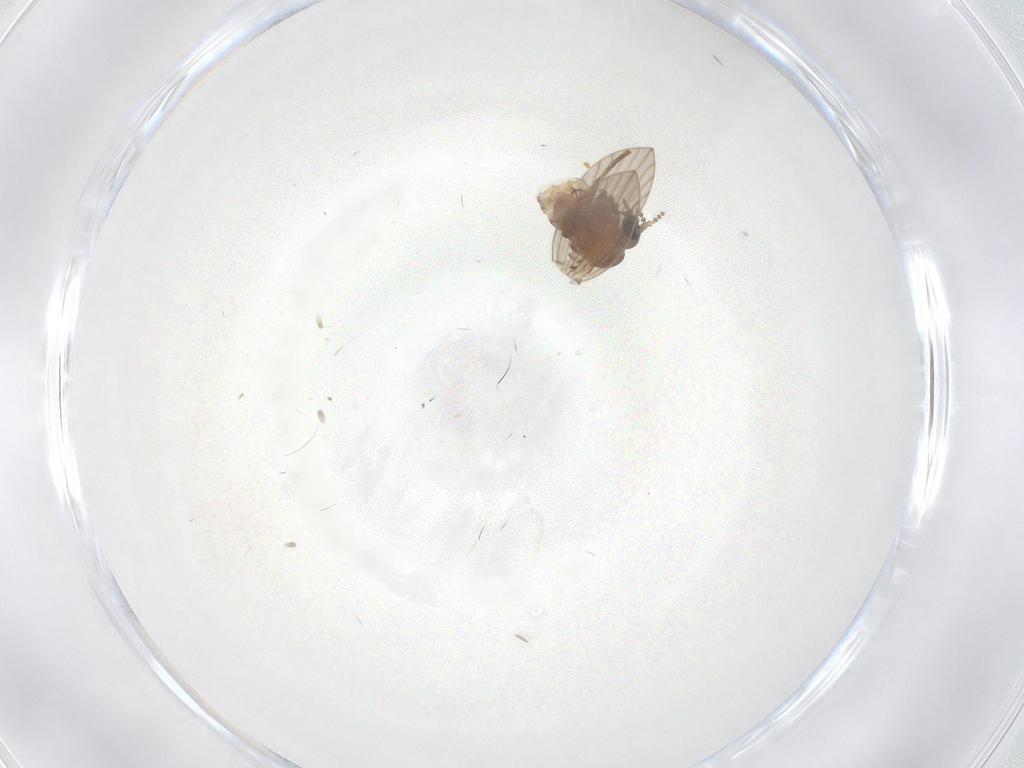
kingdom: Animalia
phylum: Arthropoda
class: Insecta
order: Diptera
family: Psychodidae
